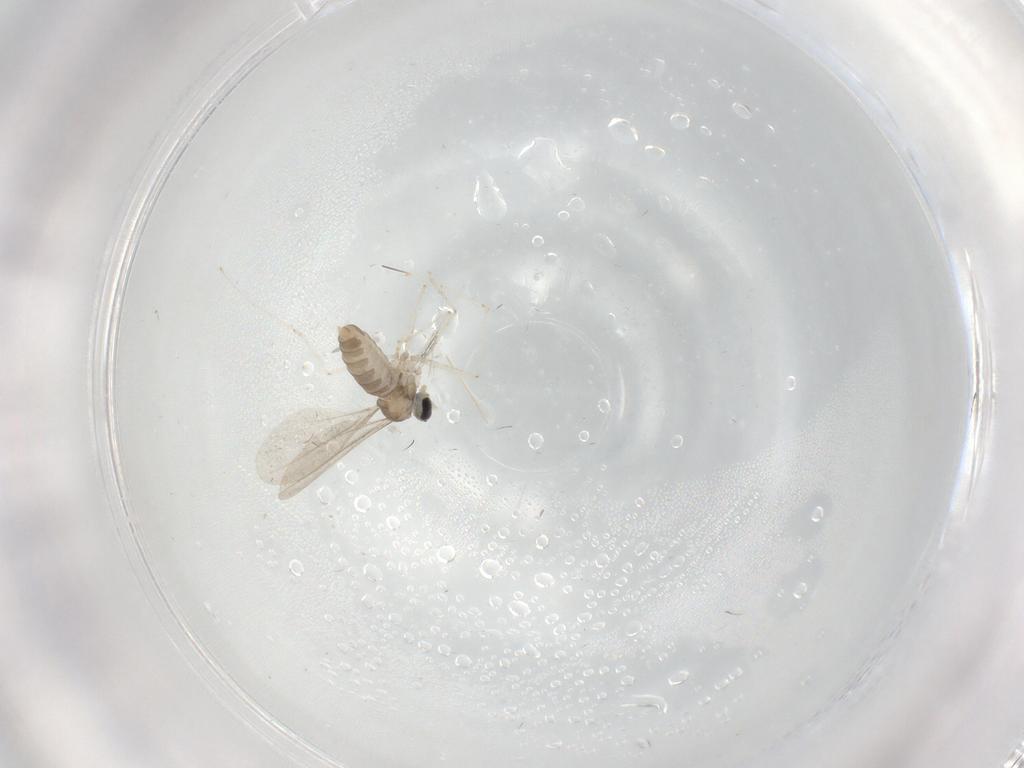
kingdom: Animalia
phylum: Arthropoda
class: Insecta
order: Diptera
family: Cecidomyiidae
